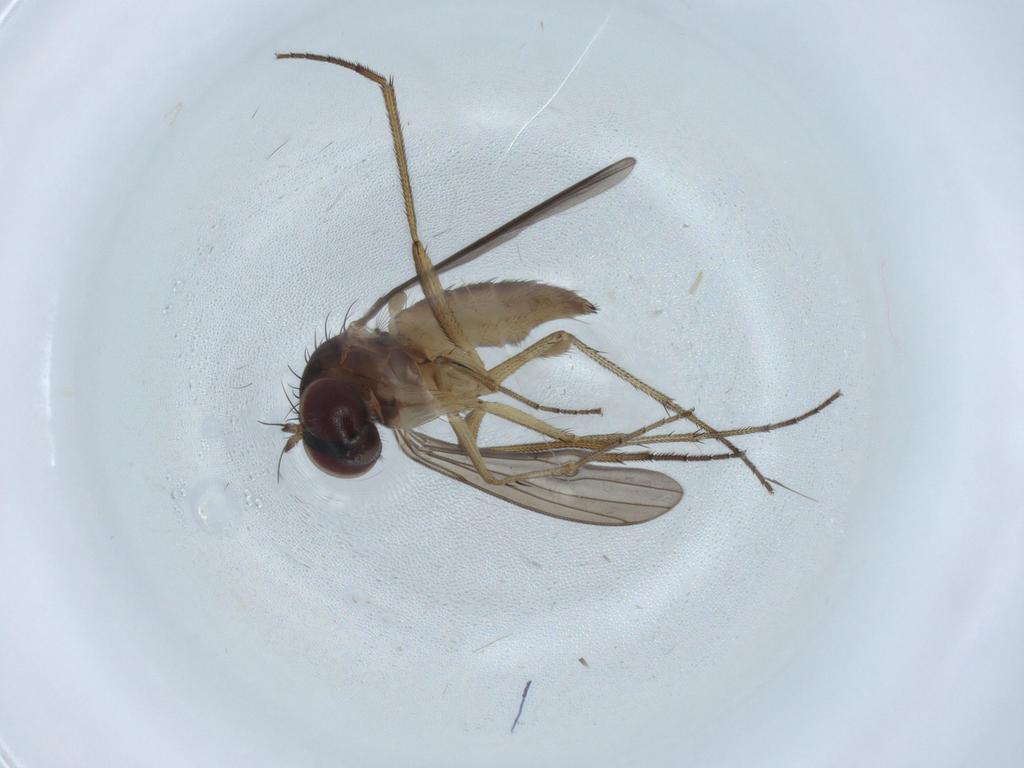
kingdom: Animalia
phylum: Arthropoda
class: Insecta
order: Diptera
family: Dolichopodidae
